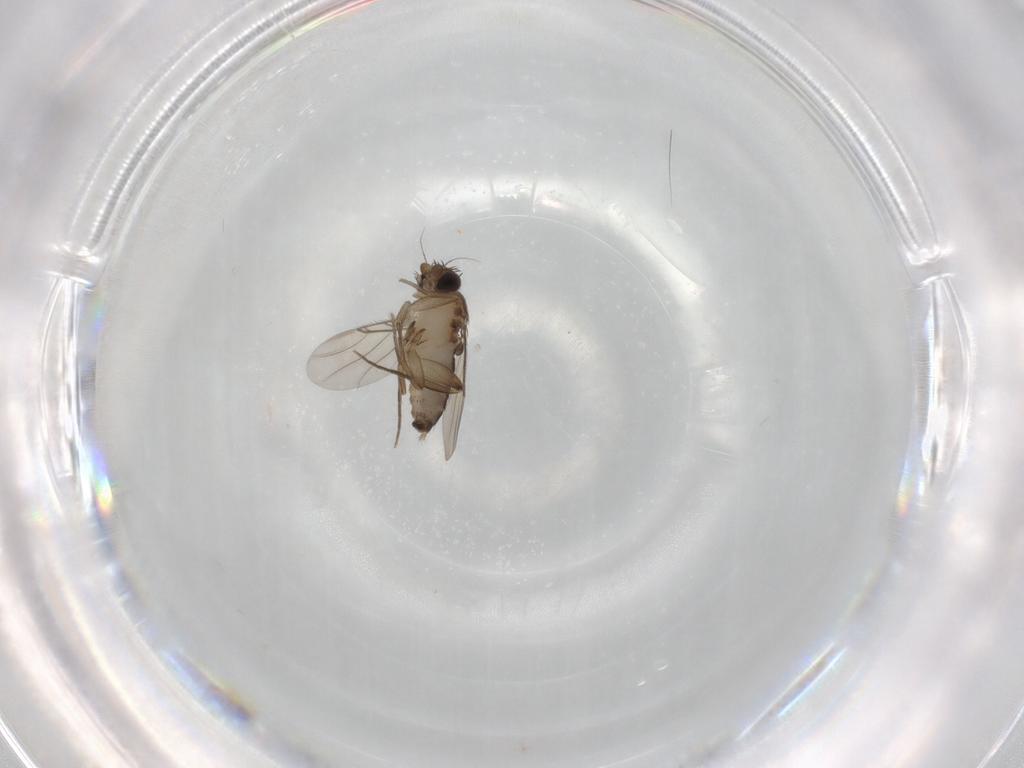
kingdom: Animalia
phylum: Arthropoda
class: Insecta
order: Diptera
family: Phoridae
